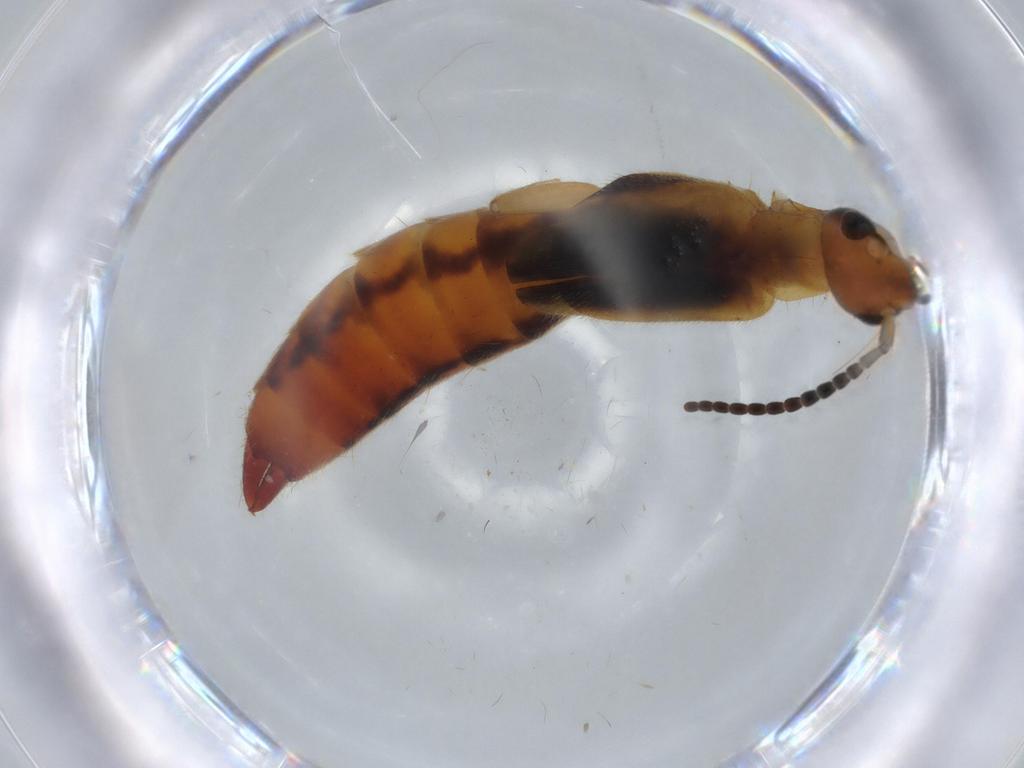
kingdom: Animalia
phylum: Arthropoda
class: Insecta
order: Dermaptera
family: Forficulidae
